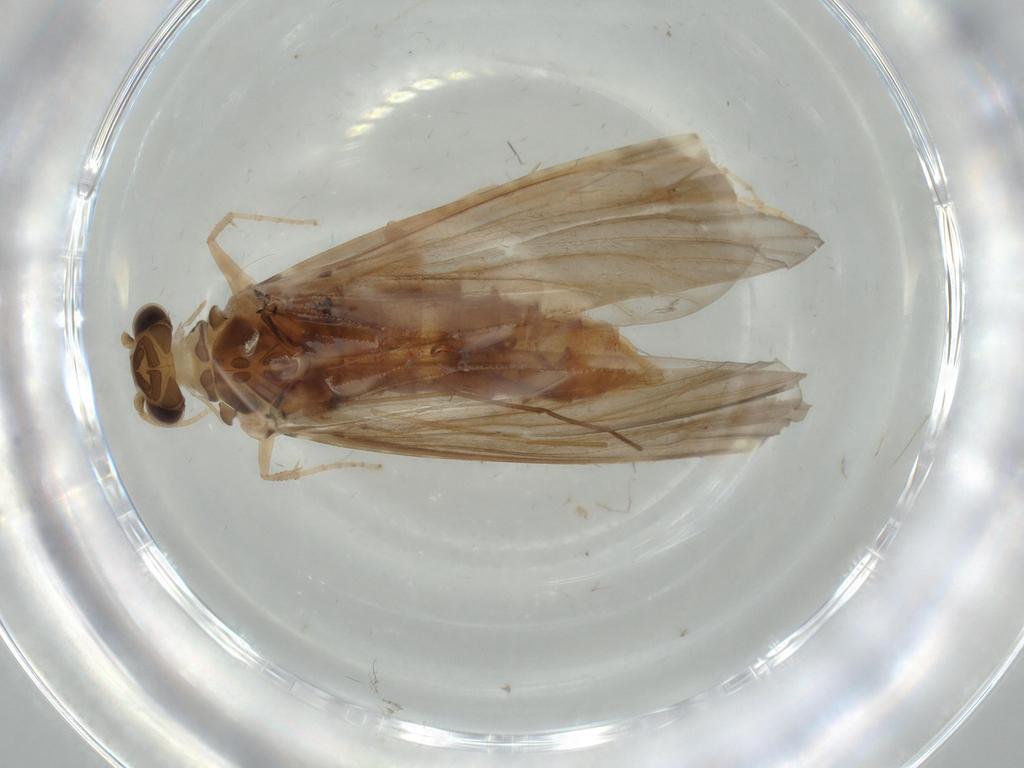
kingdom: Animalia
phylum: Arthropoda
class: Insecta
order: Trichoptera
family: Ecnomidae
